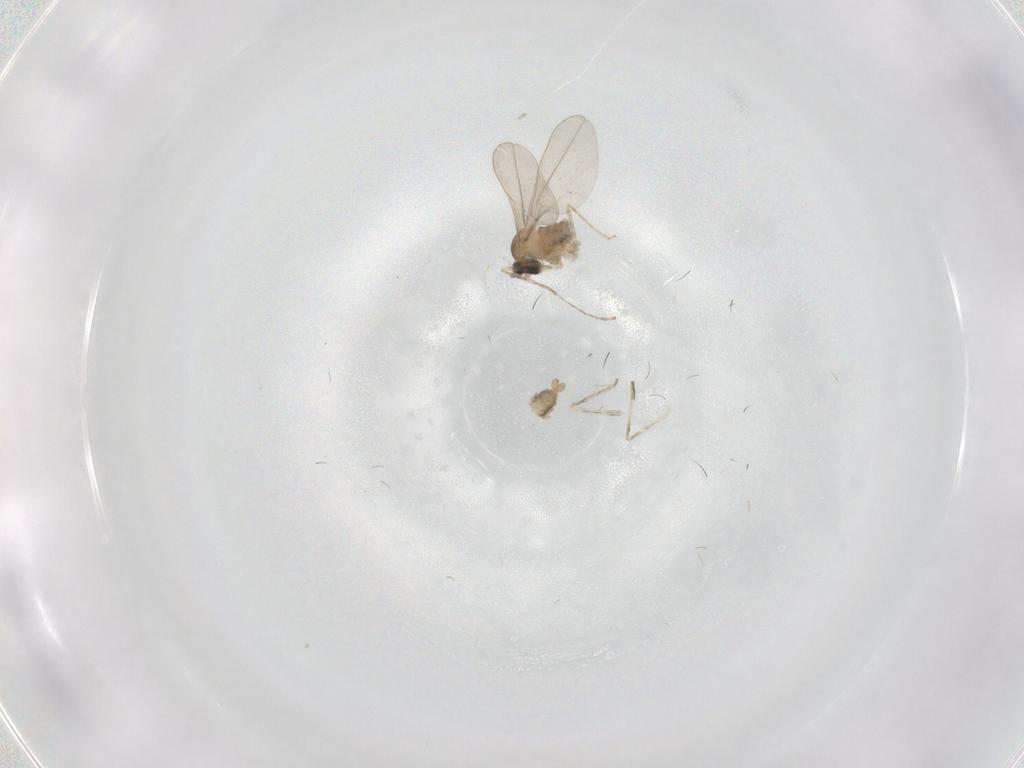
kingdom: Animalia
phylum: Arthropoda
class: Insecta
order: Diptera
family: Cecidomyiidae
